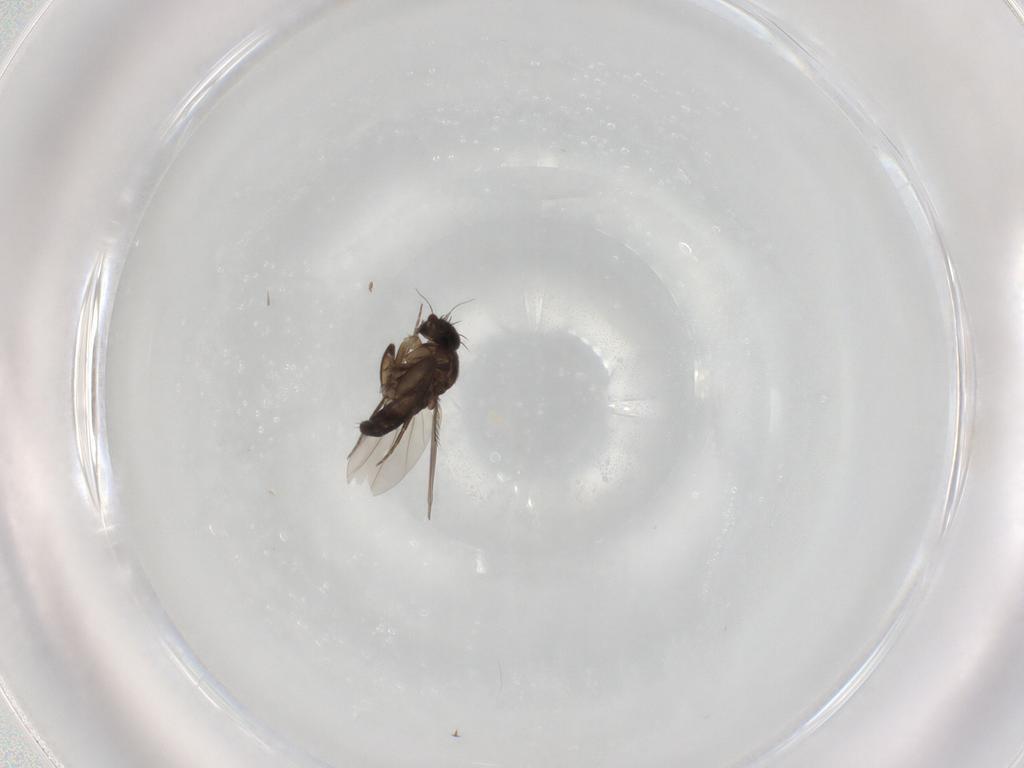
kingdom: Animalia
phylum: Arthropoda
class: Insecta
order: Diptera
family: Phoridae
